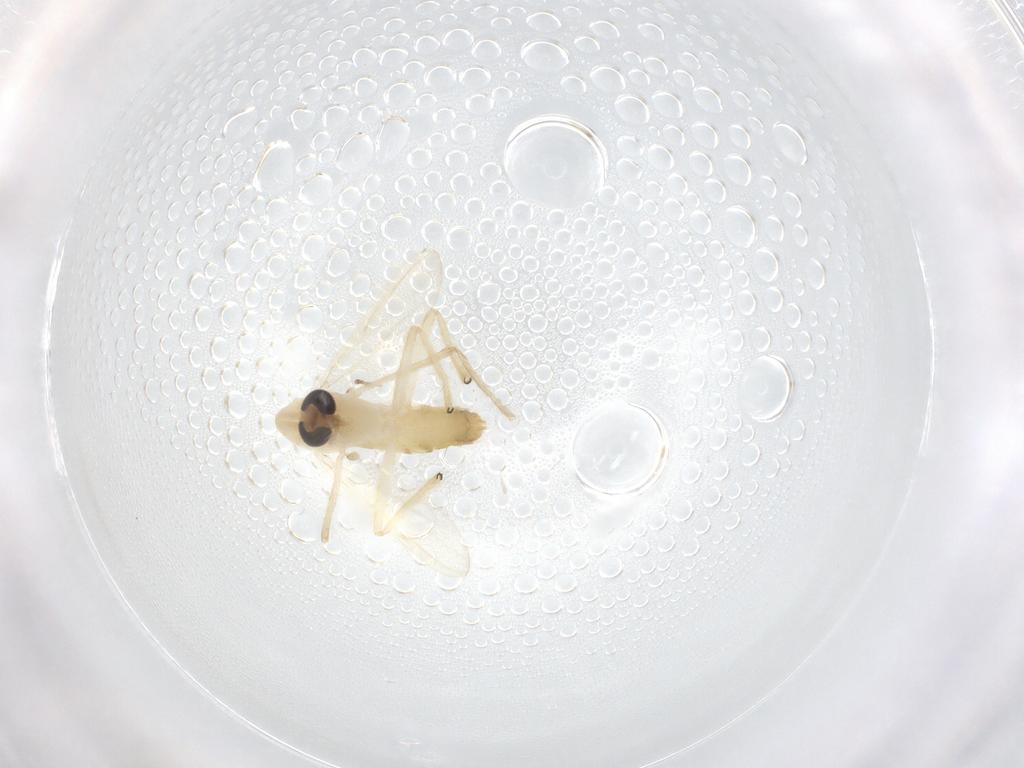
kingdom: Animalia
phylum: Arthropoda
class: Insecta
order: Diptera
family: Chironomidae
